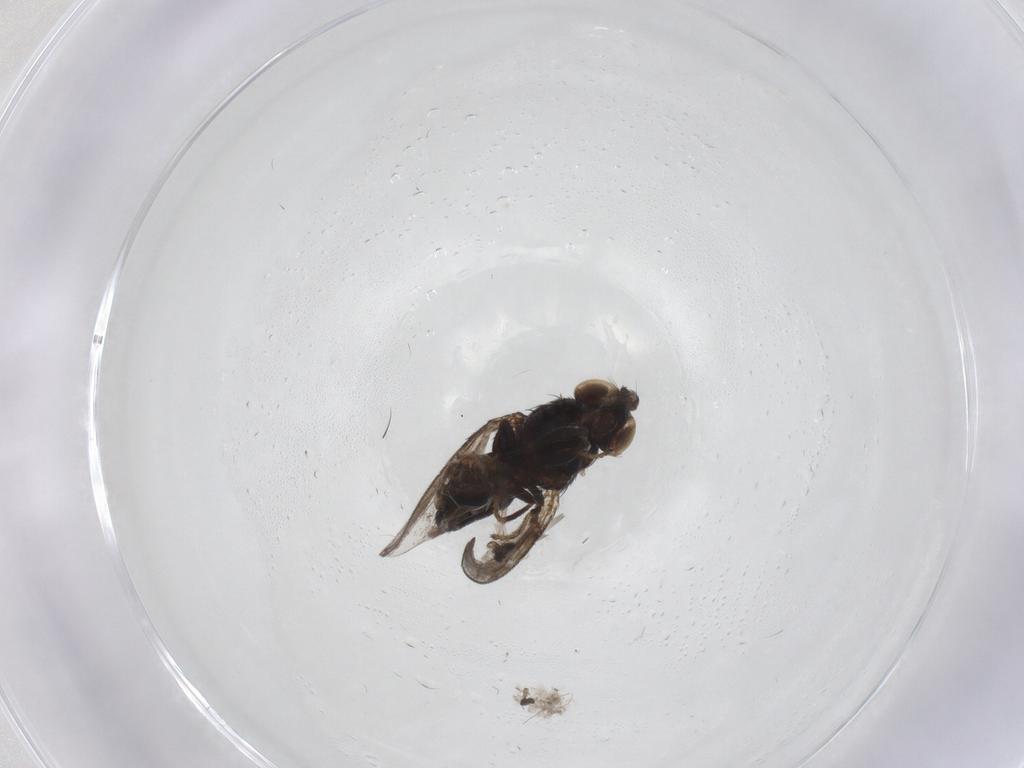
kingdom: Animalia
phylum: Arthropoda
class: Insecta
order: Diptera
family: Ceratopogonidae
